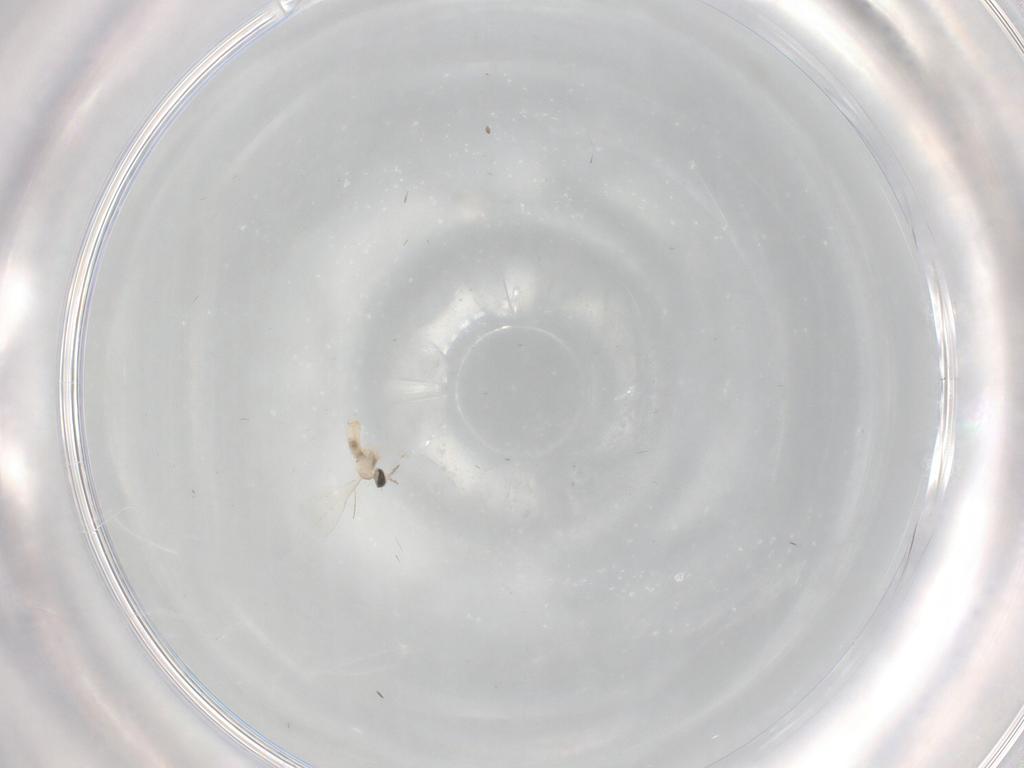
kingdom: Animalia
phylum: Arthropoda
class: Insecta
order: Diptera
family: Cecidomyiidae
